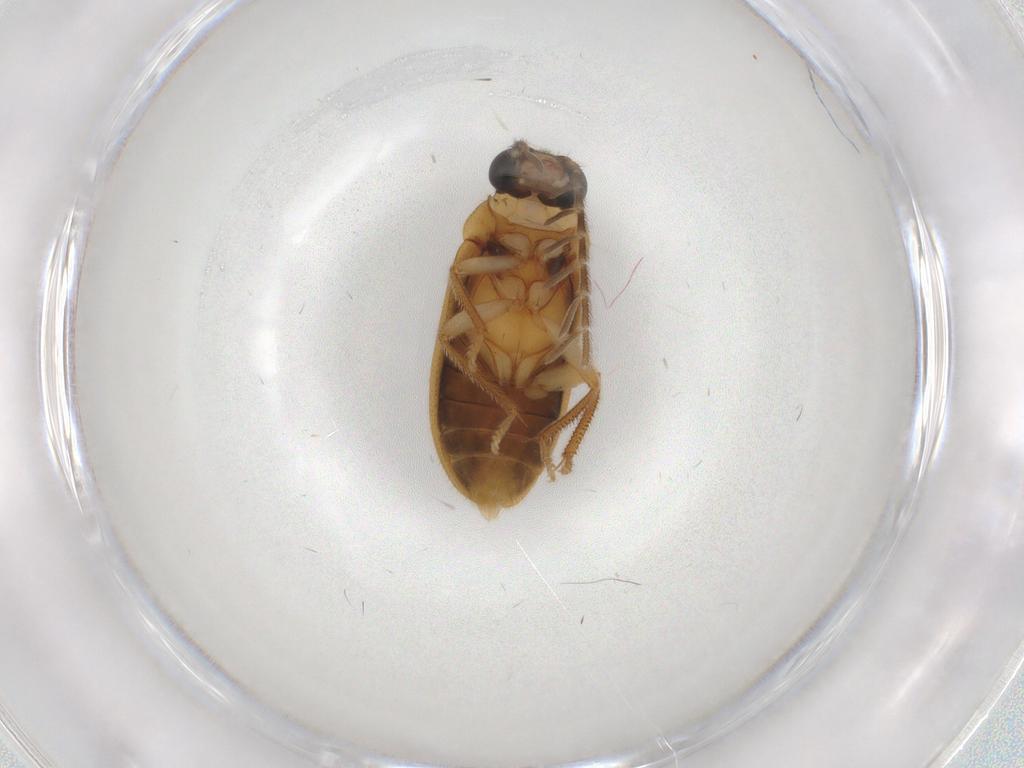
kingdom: Animalia
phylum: Arthropoda
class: Insecta
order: Coleoptera
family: Ptilodactylidae
